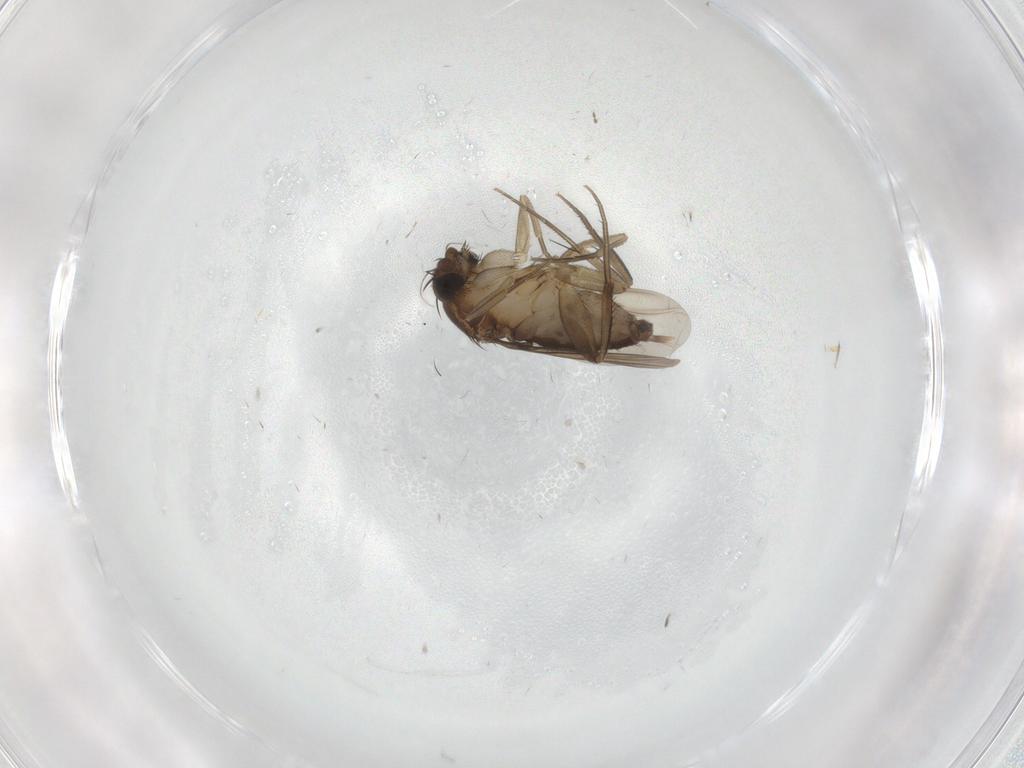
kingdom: Animalia
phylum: Arthropoda
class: Insecta
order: Diptera
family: Phoridae
